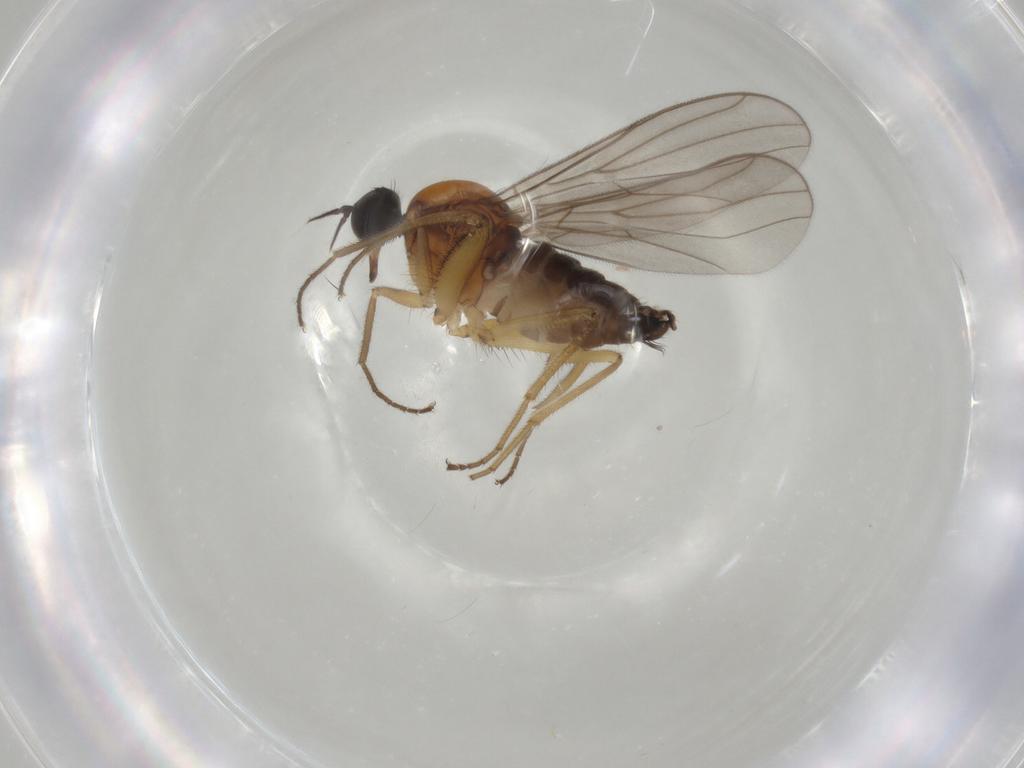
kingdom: Animalia
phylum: Arthropoda
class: Insecta
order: Diptera
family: Hybotidae
